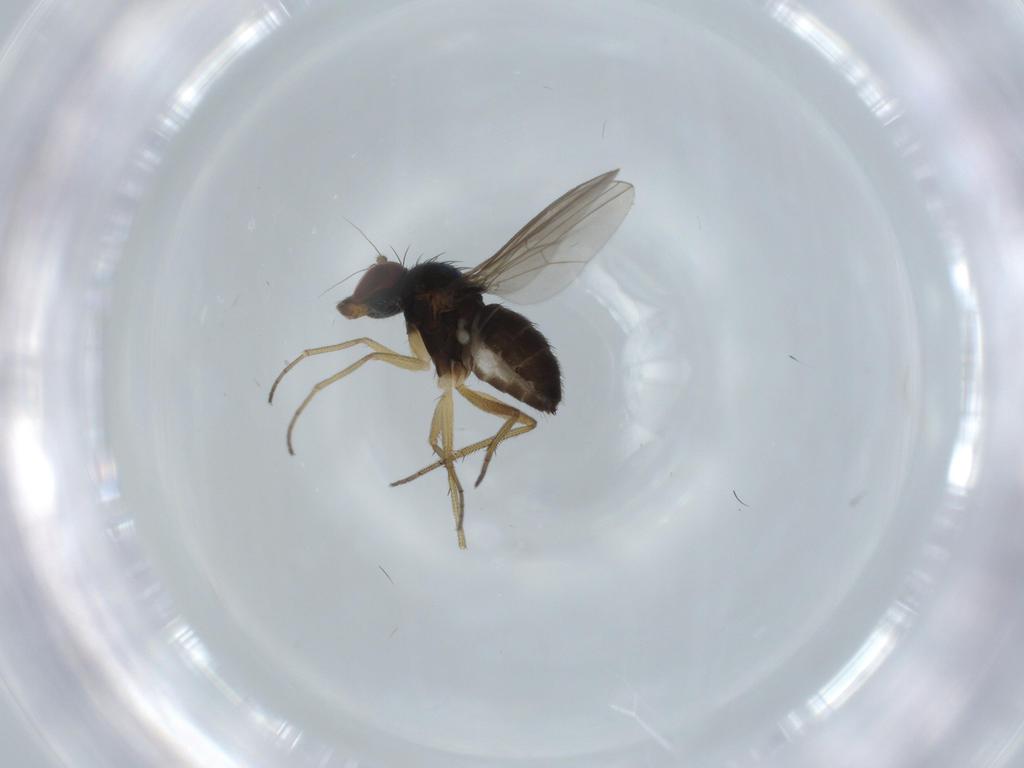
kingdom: Animalia
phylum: Arthropoda
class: Insecta
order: Diptera
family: Dolichopodidae
